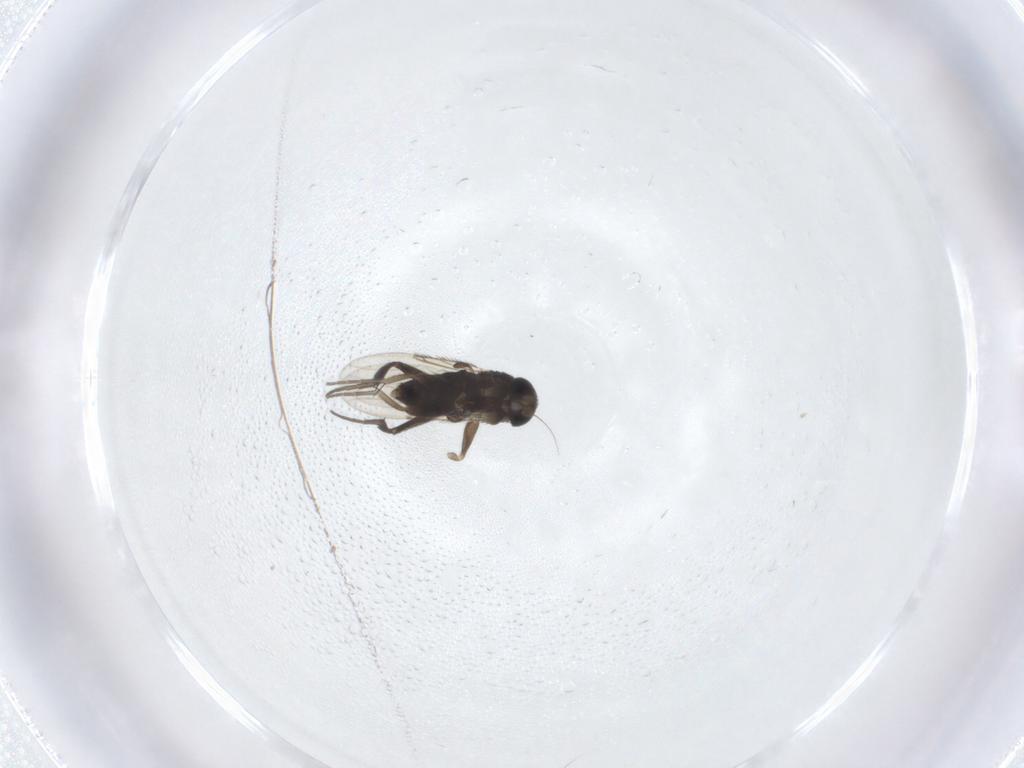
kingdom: Animalia
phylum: Arthropoda
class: Insecta
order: Diptera
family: Phoridae
